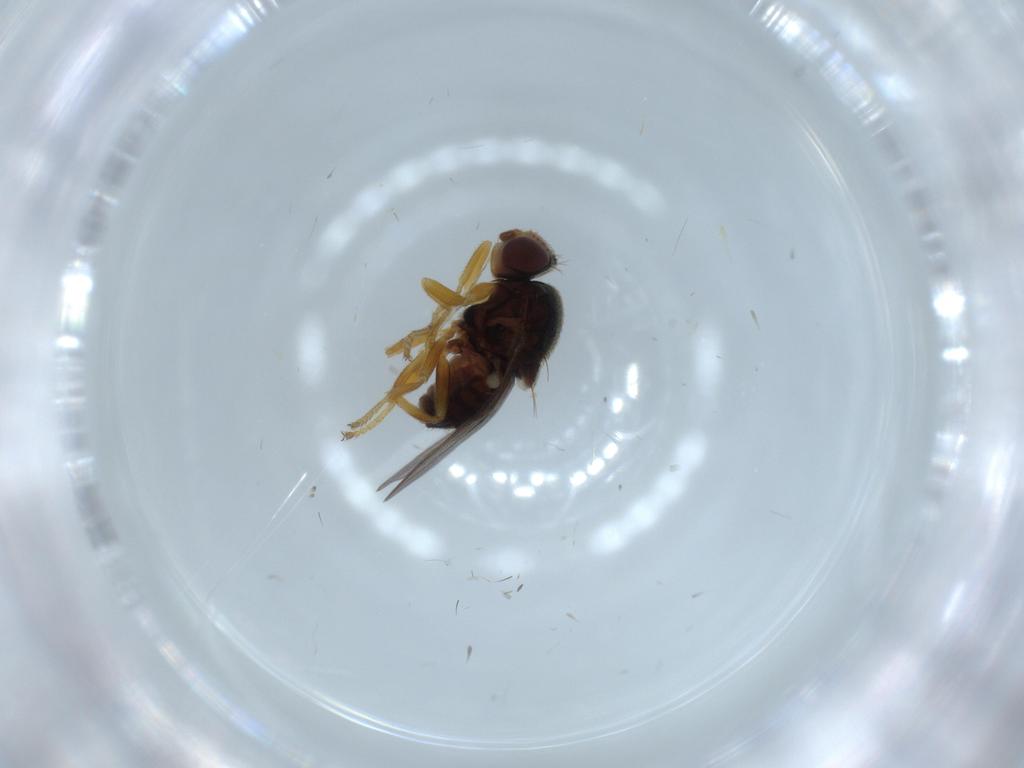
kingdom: Animalia
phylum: Arthropoda
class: Insecta
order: Diptera
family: Chloropidae
